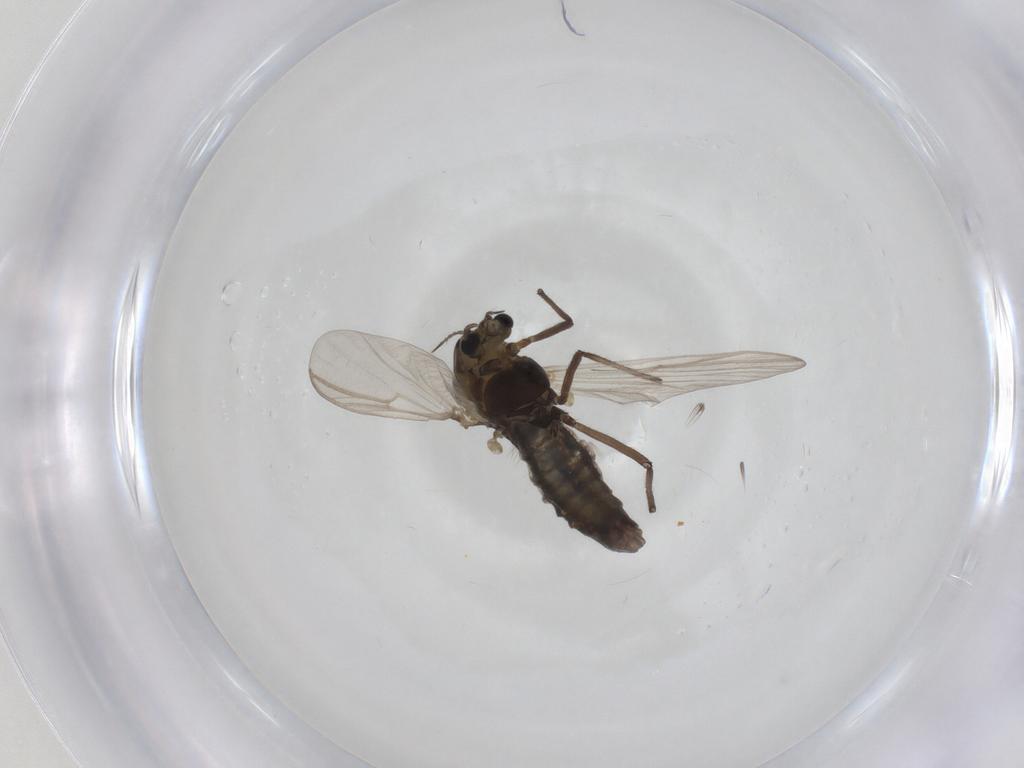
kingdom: Animalia
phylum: Arthropoda
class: Insecta
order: Diptera
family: Chironomidae
